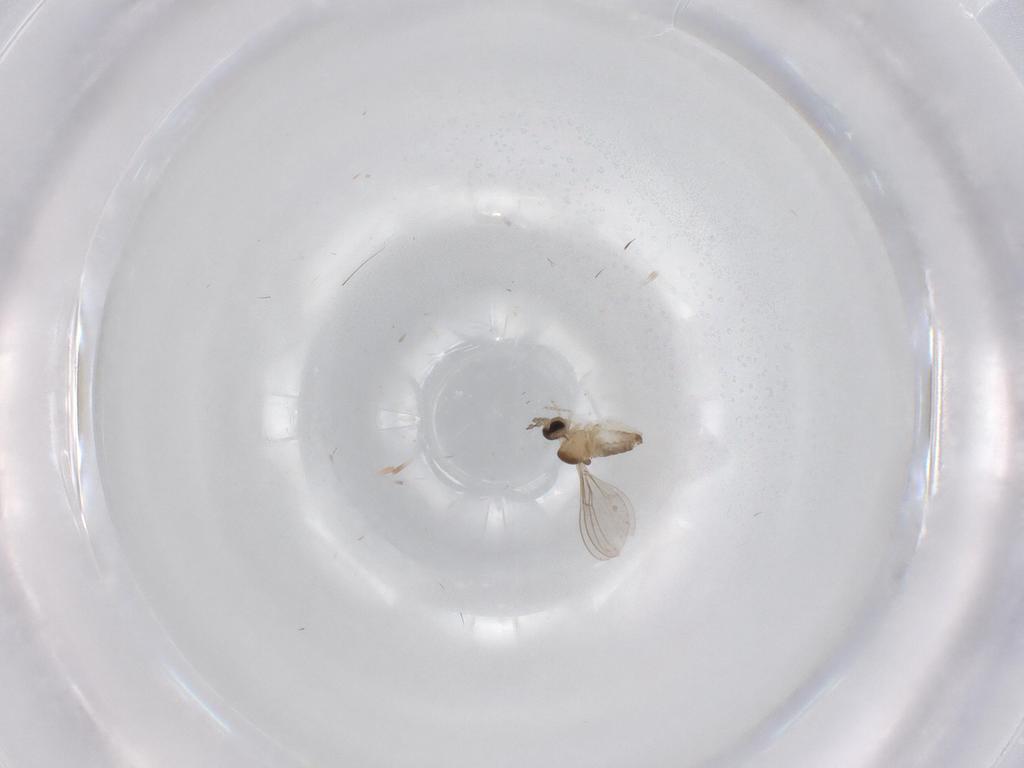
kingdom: Animalia
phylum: Arthropoda
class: Insecta
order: Diptera
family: Cecidomyiidae
